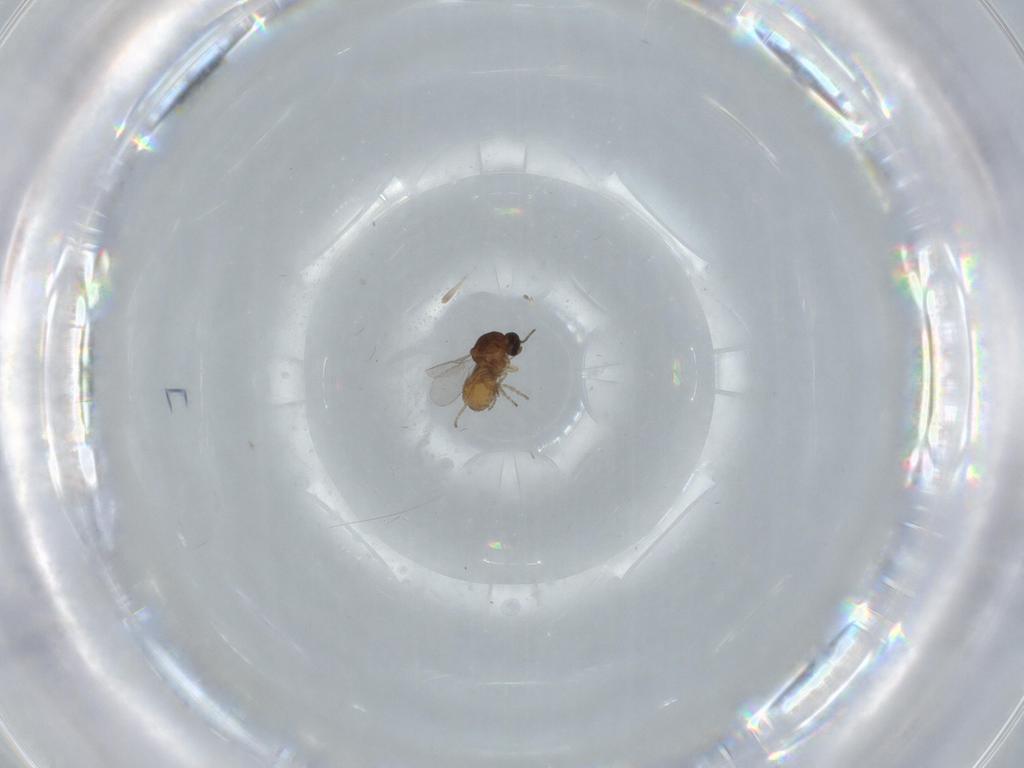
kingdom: Animalia
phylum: Arthropoda
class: Insecta
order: Diptera
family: Ceratopogonidae
